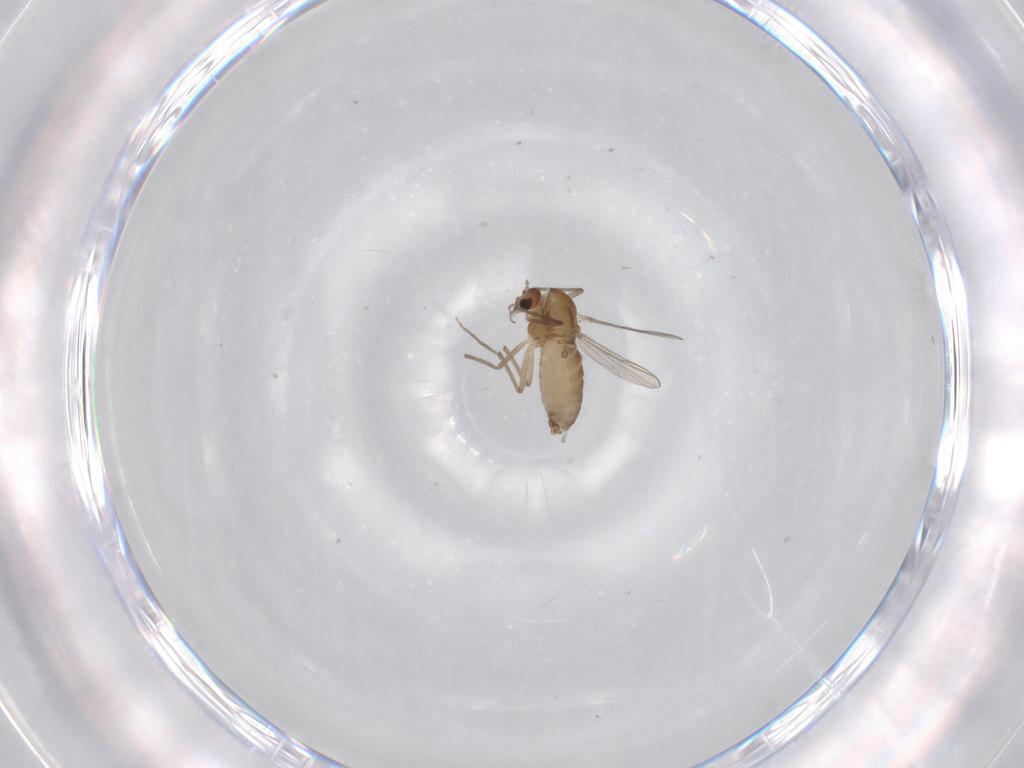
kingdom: Animalia
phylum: Arthropoda
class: Insecta
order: Diptera
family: Chironomidae
